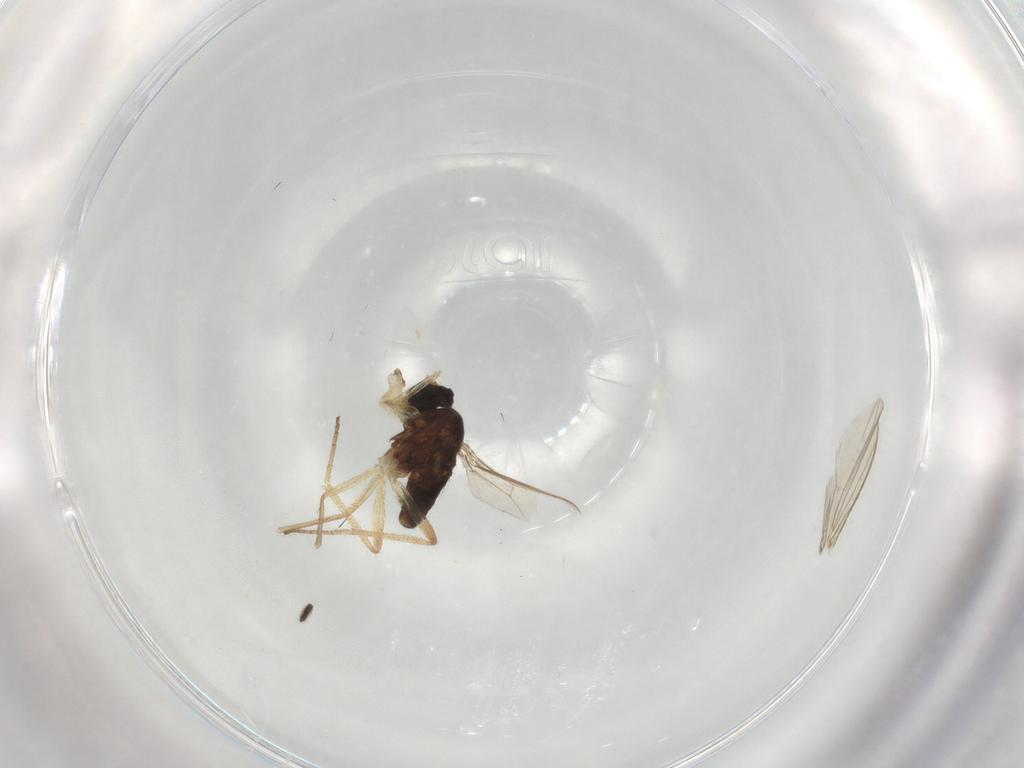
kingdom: Animalia
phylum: Arthropoda
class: Insecta
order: Diptera
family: Dolichopodidae
